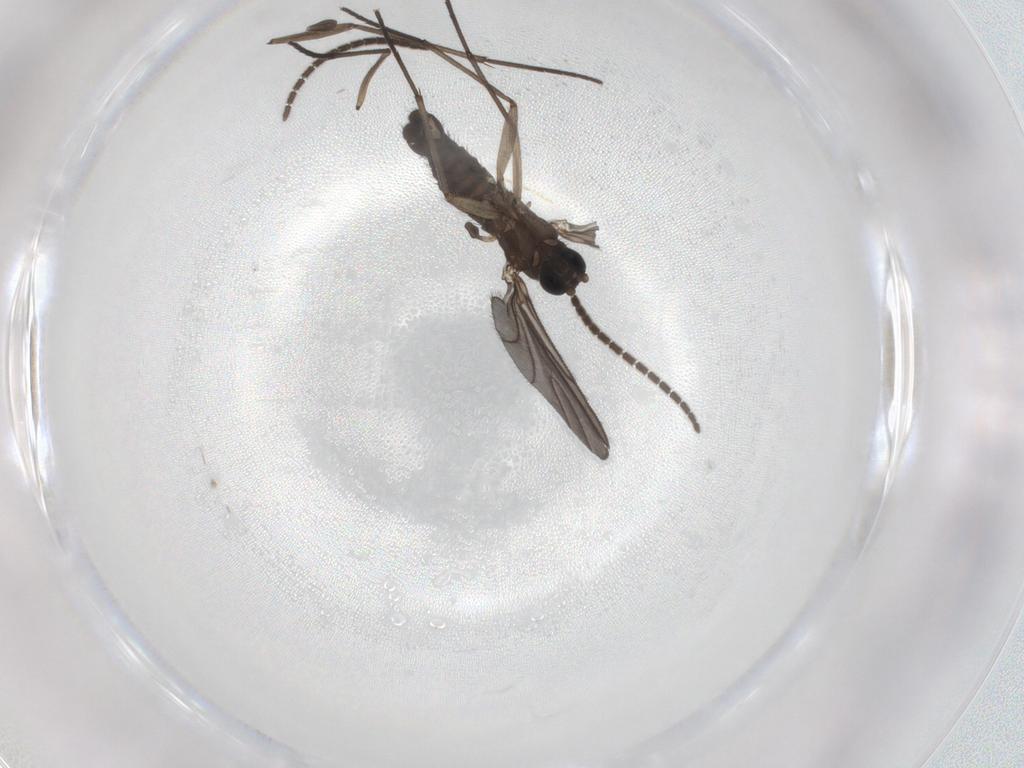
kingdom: Animalia
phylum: Arthropoda
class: Insecta
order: Diptera
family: Sciaridae
